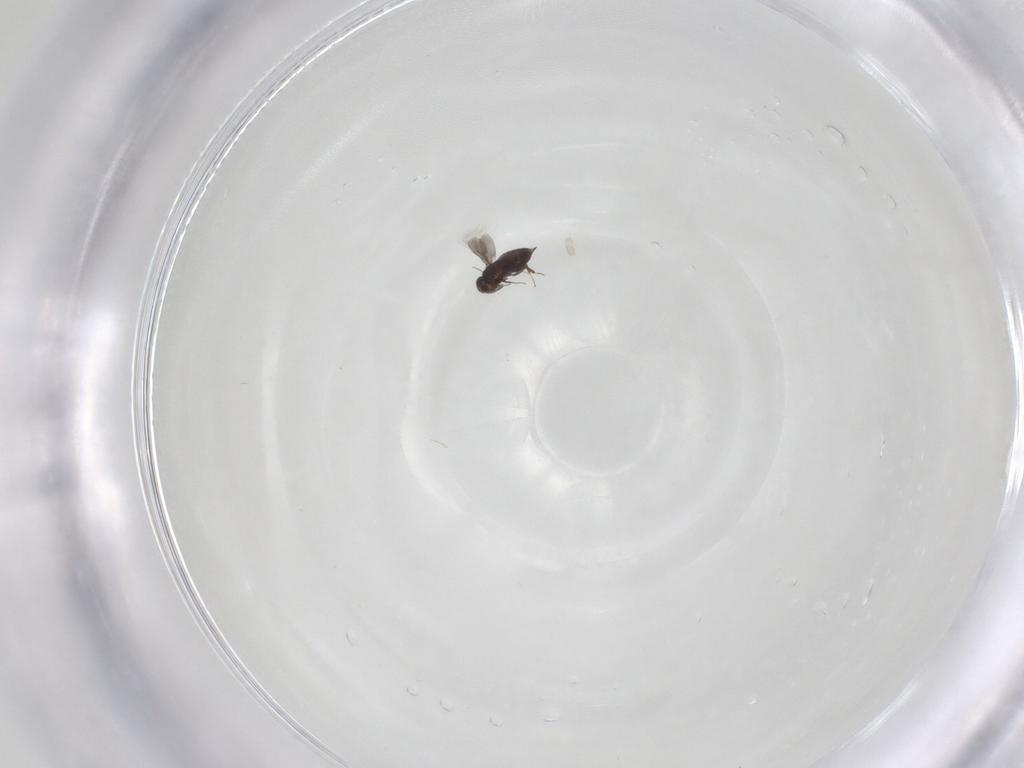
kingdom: Animalia
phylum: Arthropoda
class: Insecta
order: Hymenoptera
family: Signiphoridae
